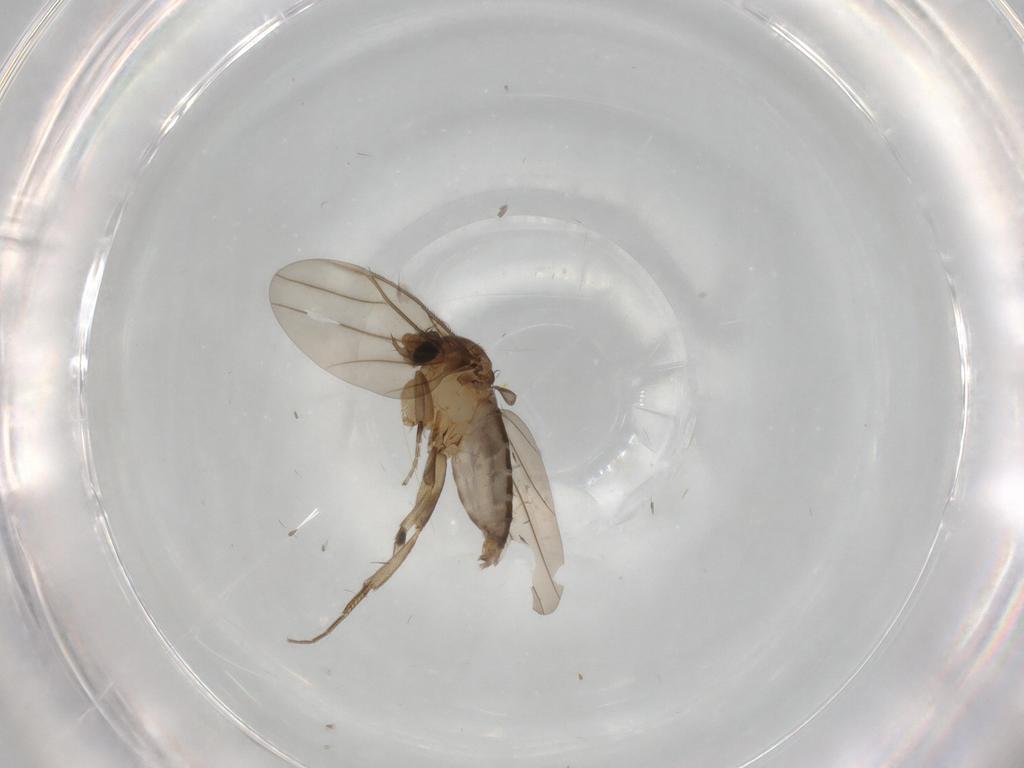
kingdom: Animalia
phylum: Arthropoda
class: Insecta
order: Diptera
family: Phoridae
